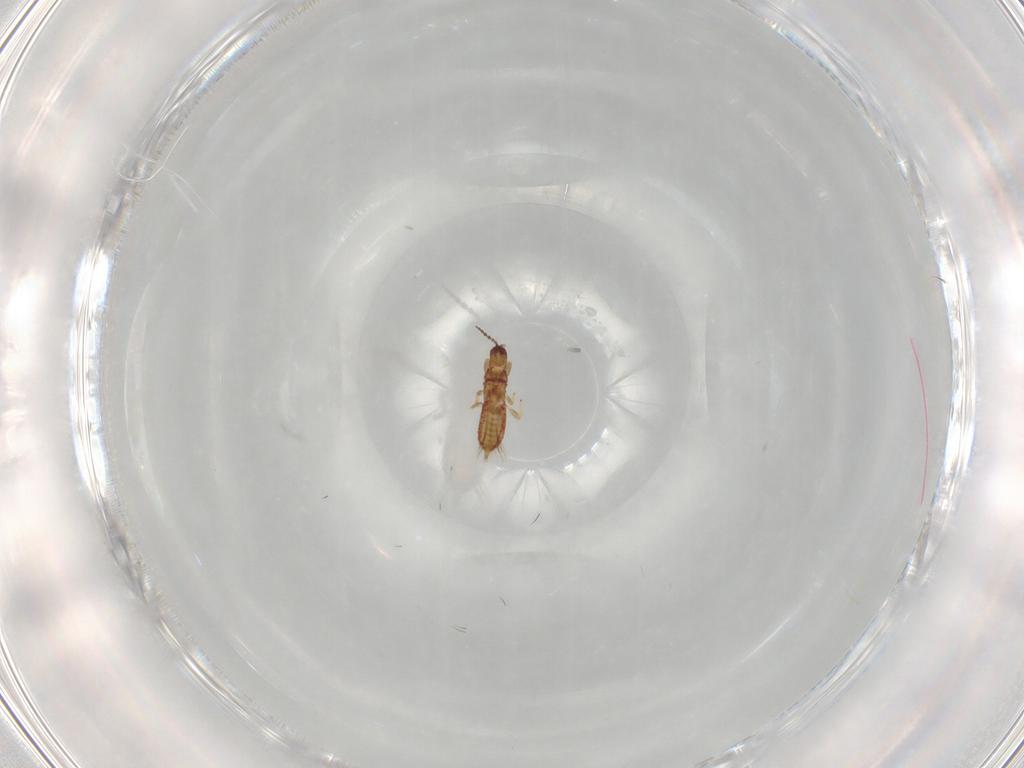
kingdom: Animalia
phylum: Arthropoda
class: Insecta
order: Thysanoptera
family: Phlaeothripidae
